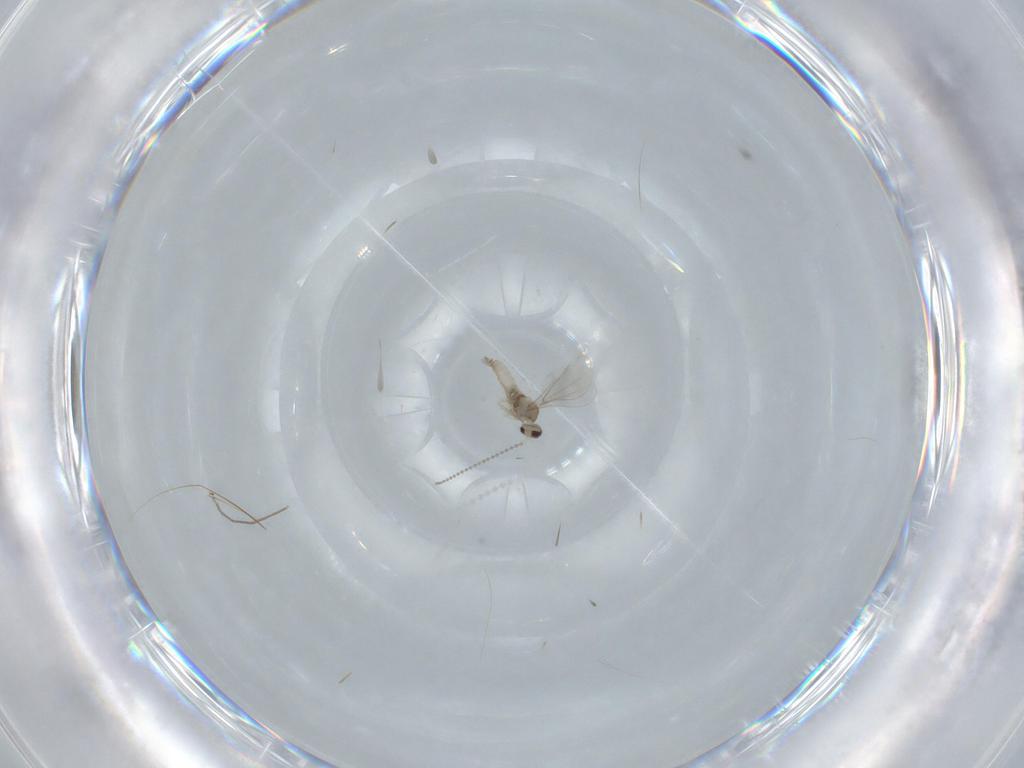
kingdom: Animalia
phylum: Arthropoda
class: Insecta
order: Diptera
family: Cecidomyiidae
